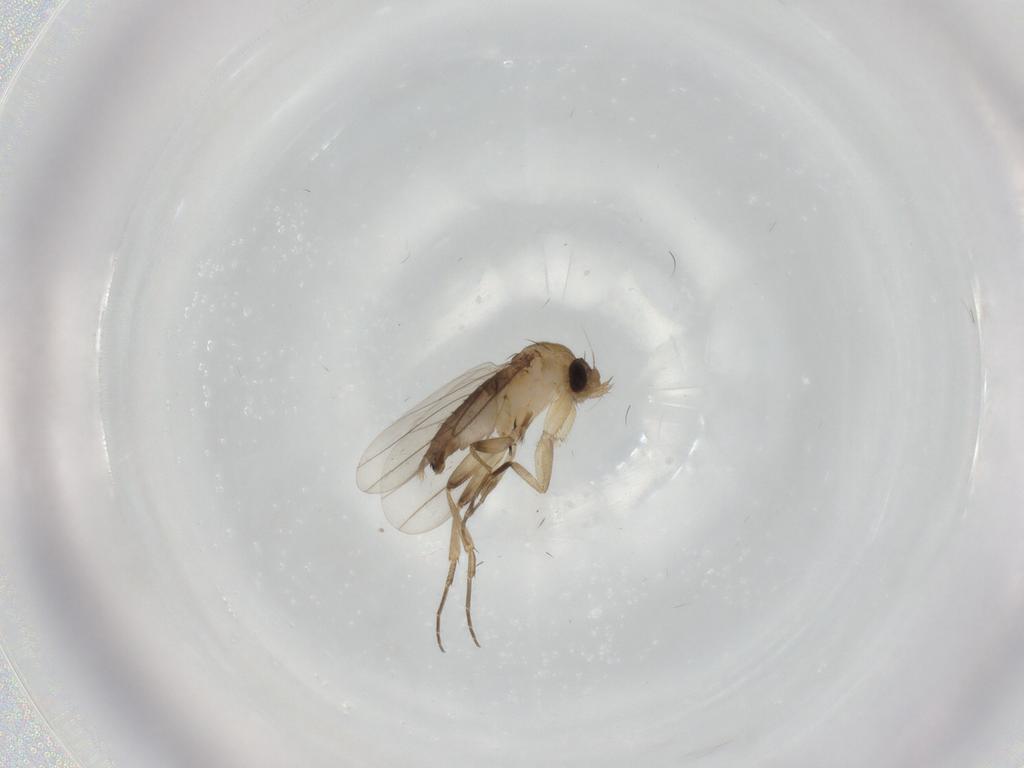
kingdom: Animalia
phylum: Arthropoda
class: Insecta
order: Diptera
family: Phoridae
